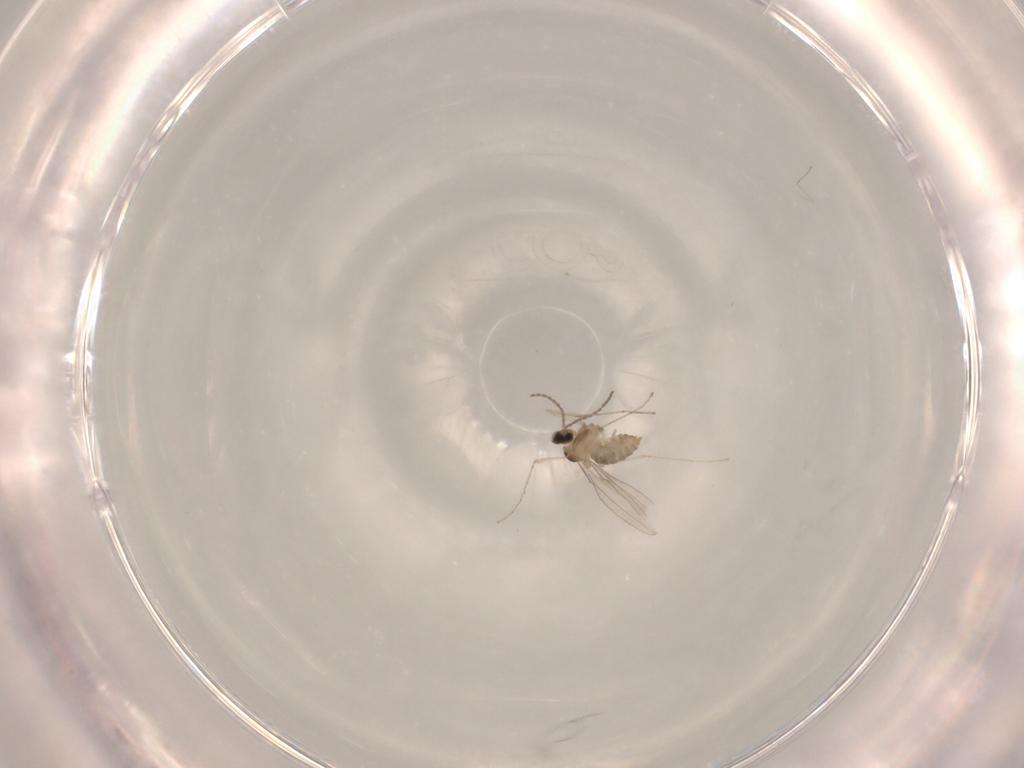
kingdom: Animalia
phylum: Arthropoda
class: Insecta
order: Diptera
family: Cecidomyiidae
